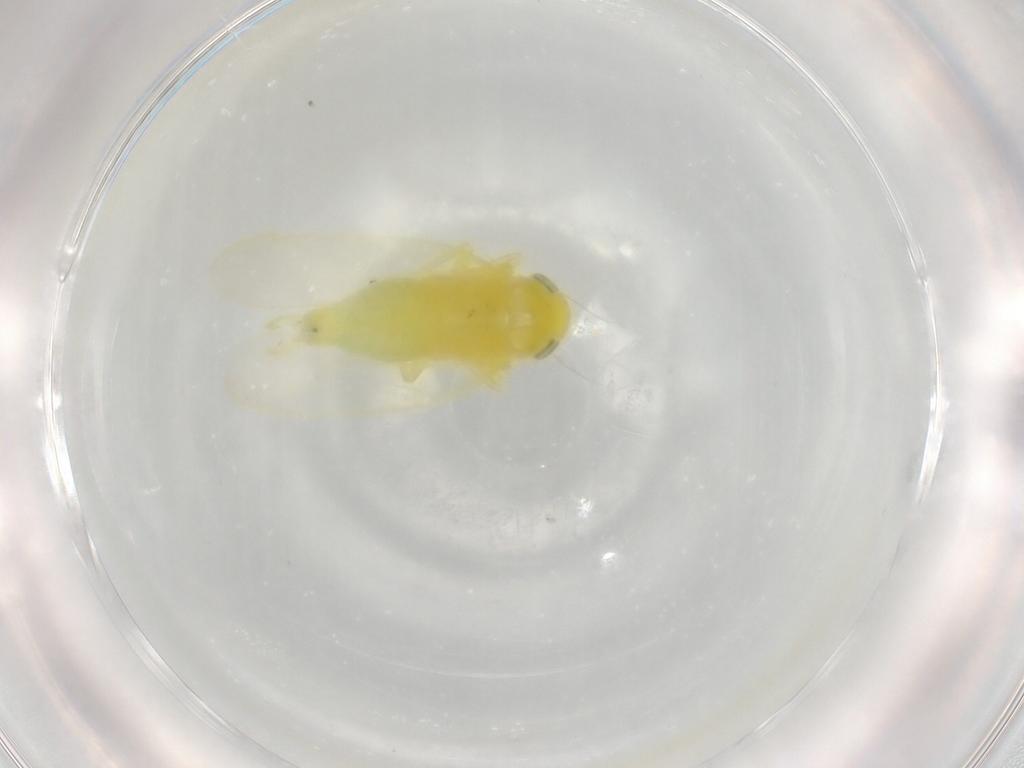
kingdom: Animalia
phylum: Arthropoda
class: Insecta
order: Hemiptera
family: Cicadellidae
